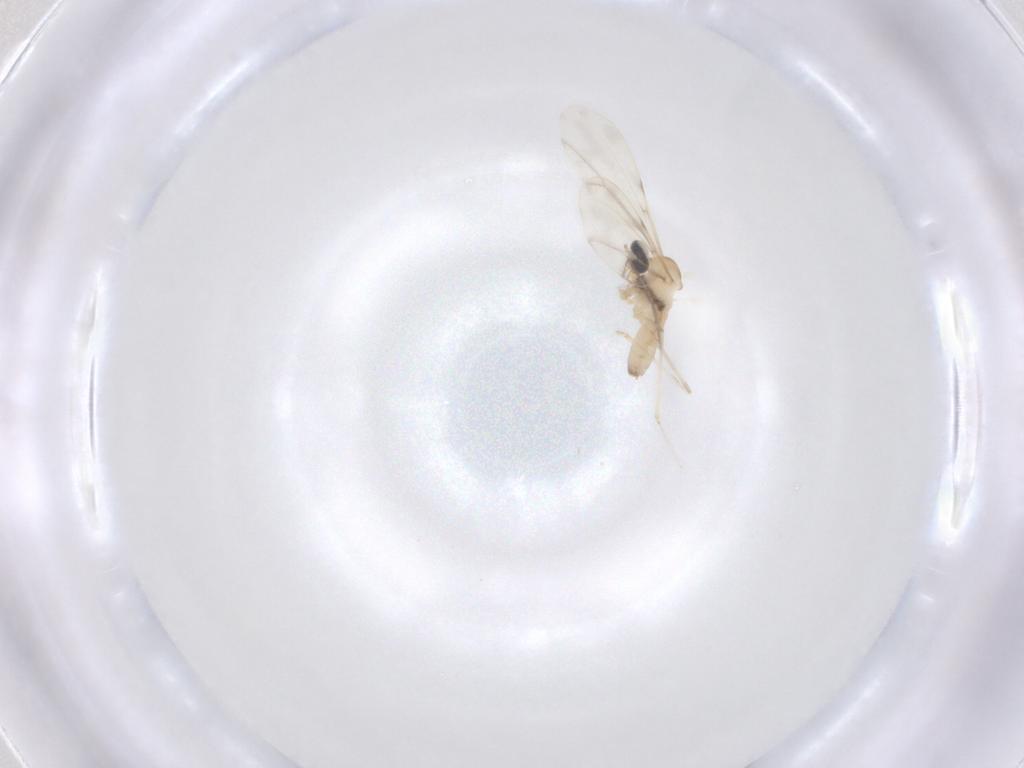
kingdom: Animalia
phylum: Arthropoda
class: Insecta
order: Diptera
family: Cecidomyiidae
